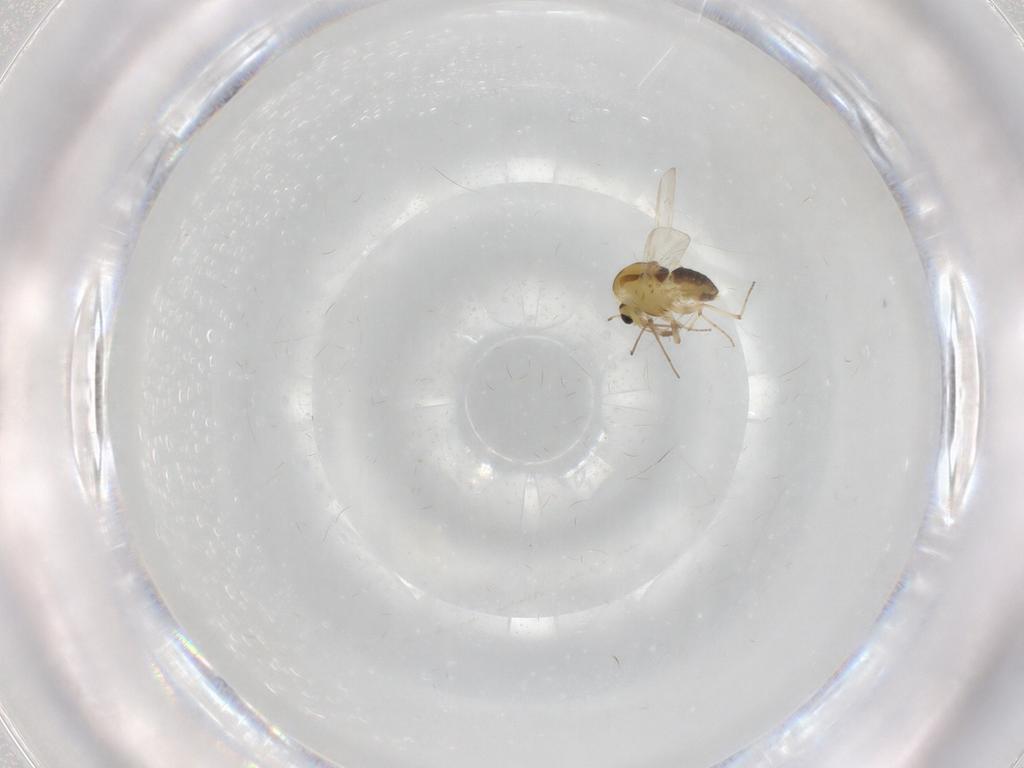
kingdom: Animalia
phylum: Arthropoda
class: Insecta
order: Diptera
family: Chironomidae
